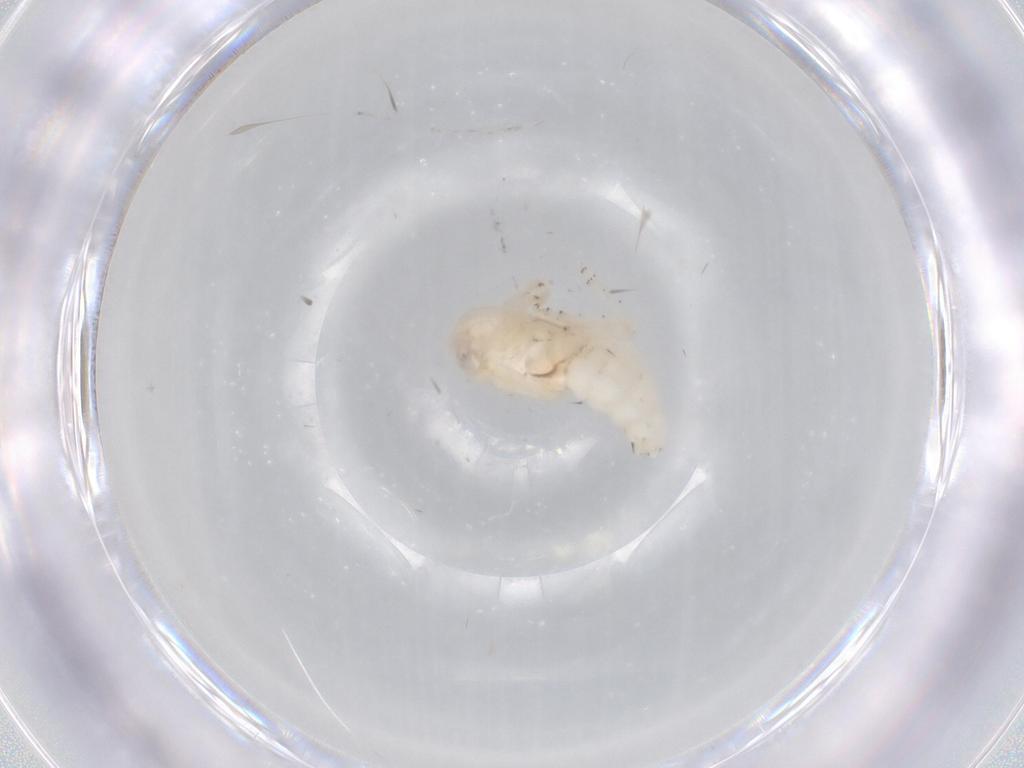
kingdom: Animalia
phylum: Arthropoda
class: Insecta
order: Hemiptera
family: Nogodinidae
